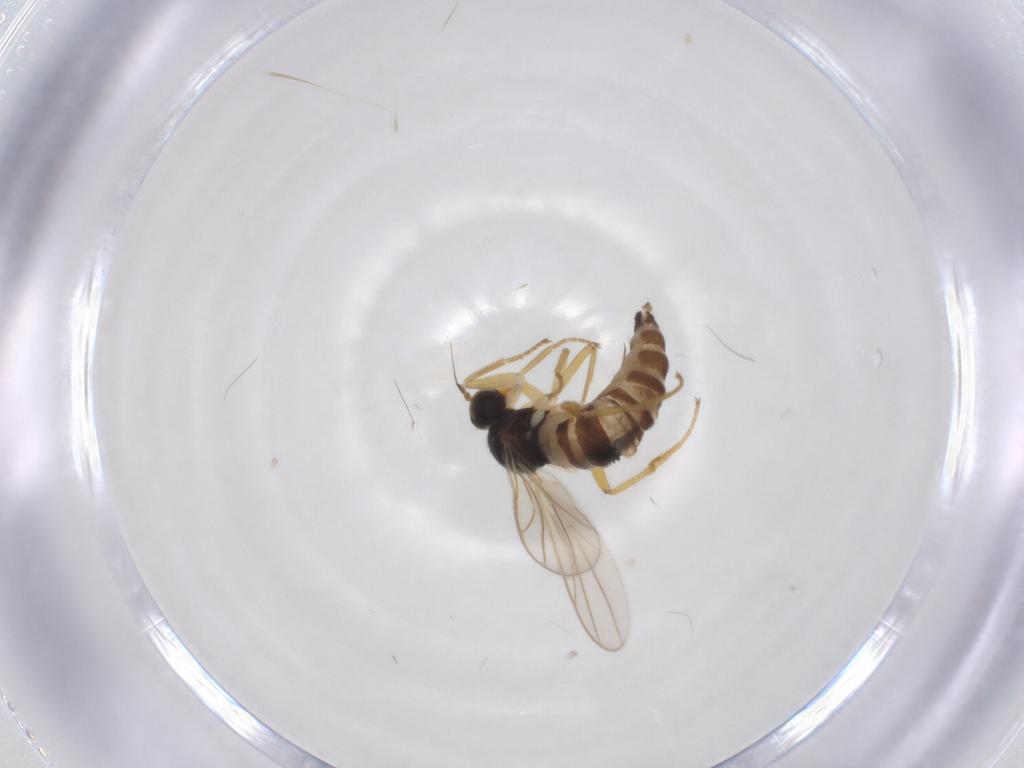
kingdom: Animalia
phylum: Arthropoda
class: Insecta
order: Diptera
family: Hybotidae
